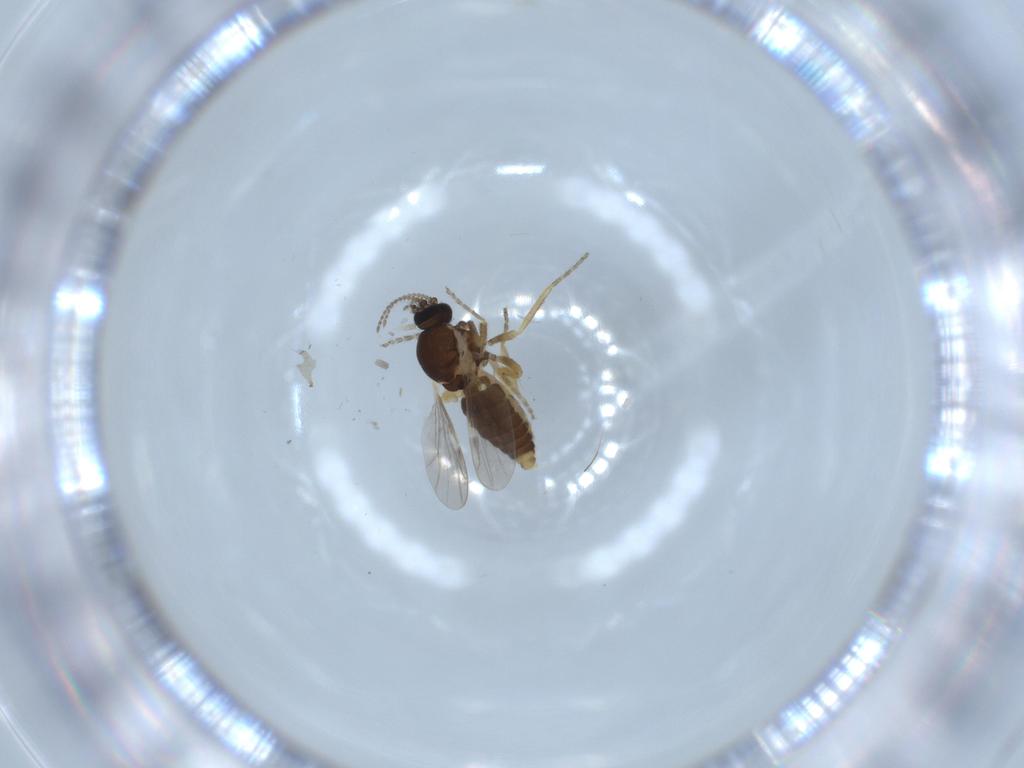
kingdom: Animalia
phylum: Arthropoda
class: Insecta
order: Diptera
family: Ceratopogonidae
